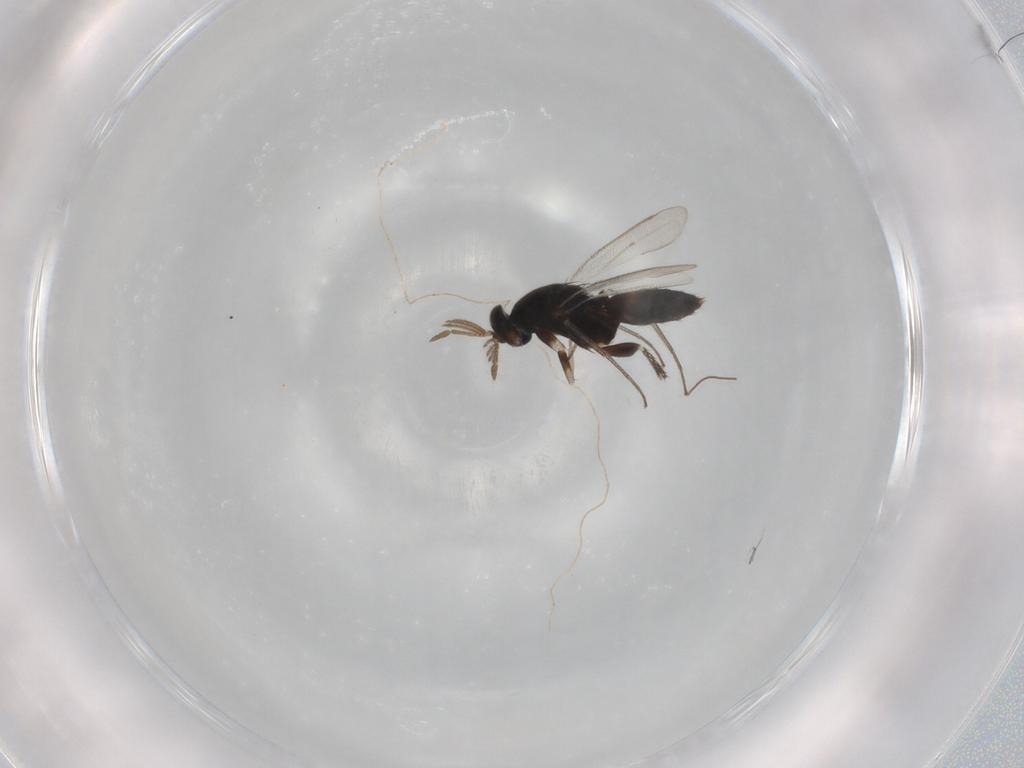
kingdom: Animalia
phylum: Arthropoda
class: Insecta
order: Hymenoptera
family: Eulophidae
